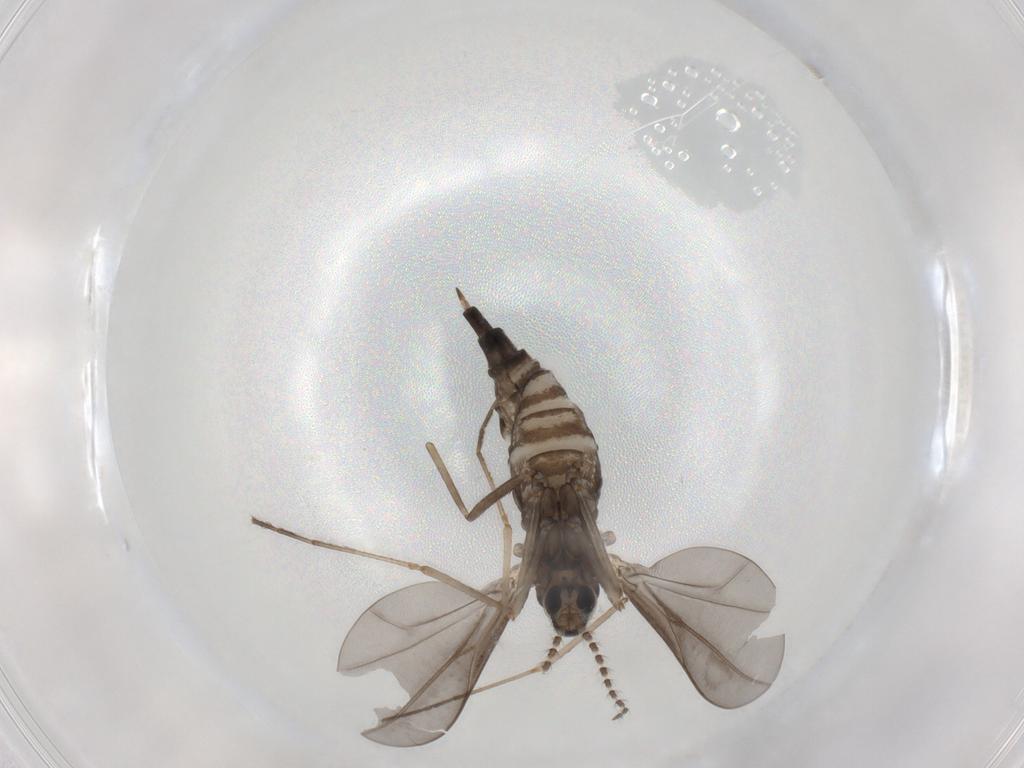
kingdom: Animalia
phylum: Arthropoda
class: Insecta
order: Diptera
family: Cecidomyiidae
